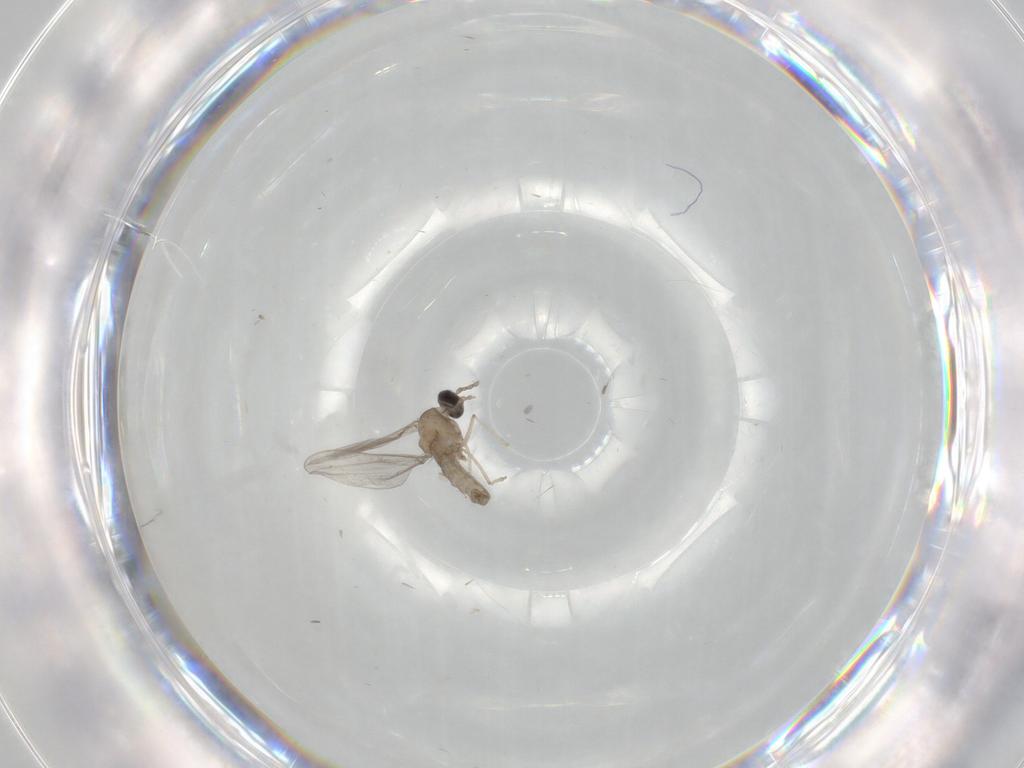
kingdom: Animalia
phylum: Arthropoda
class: Insecta
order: Diptera
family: Cecidomyiidae
